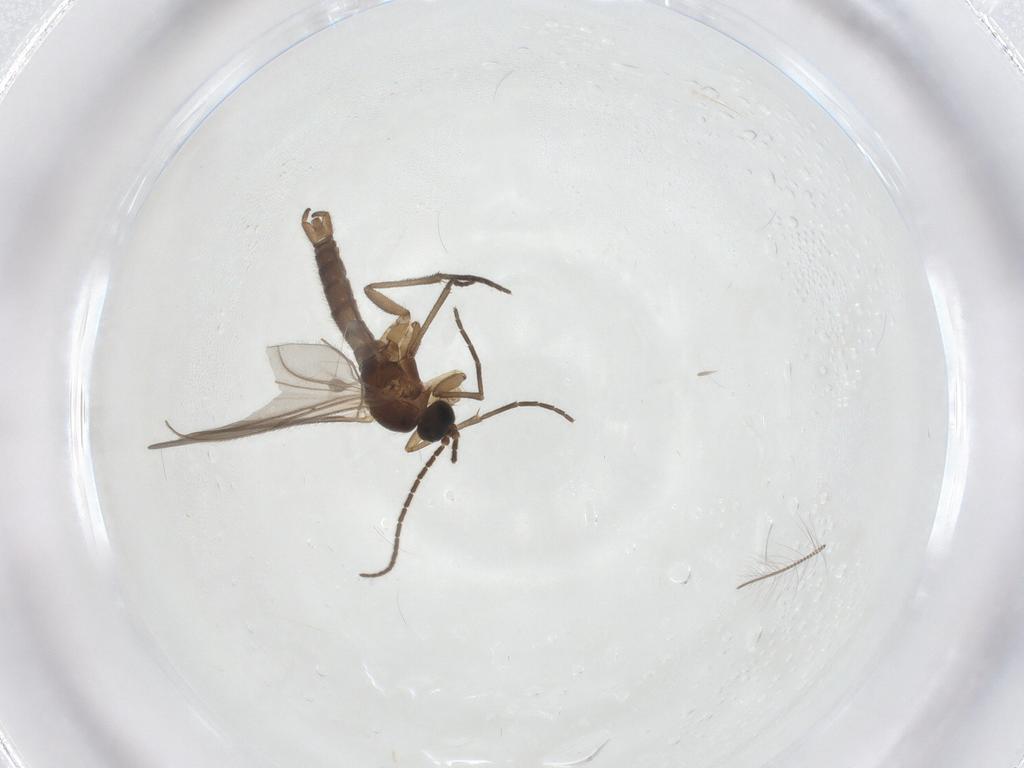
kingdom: Animalia
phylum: Arthropoda
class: Insecta
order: Diptera
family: Sciaridae
